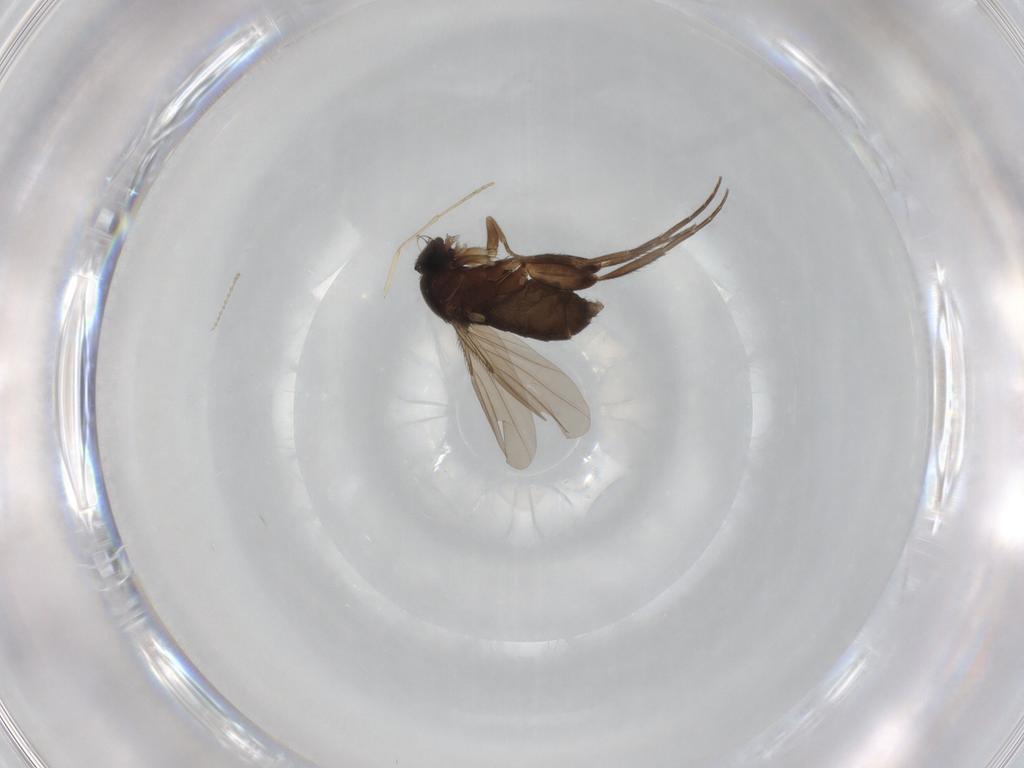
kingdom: Animalia
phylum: Arthropoda
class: Insecta
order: Diptera
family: Phoridae
